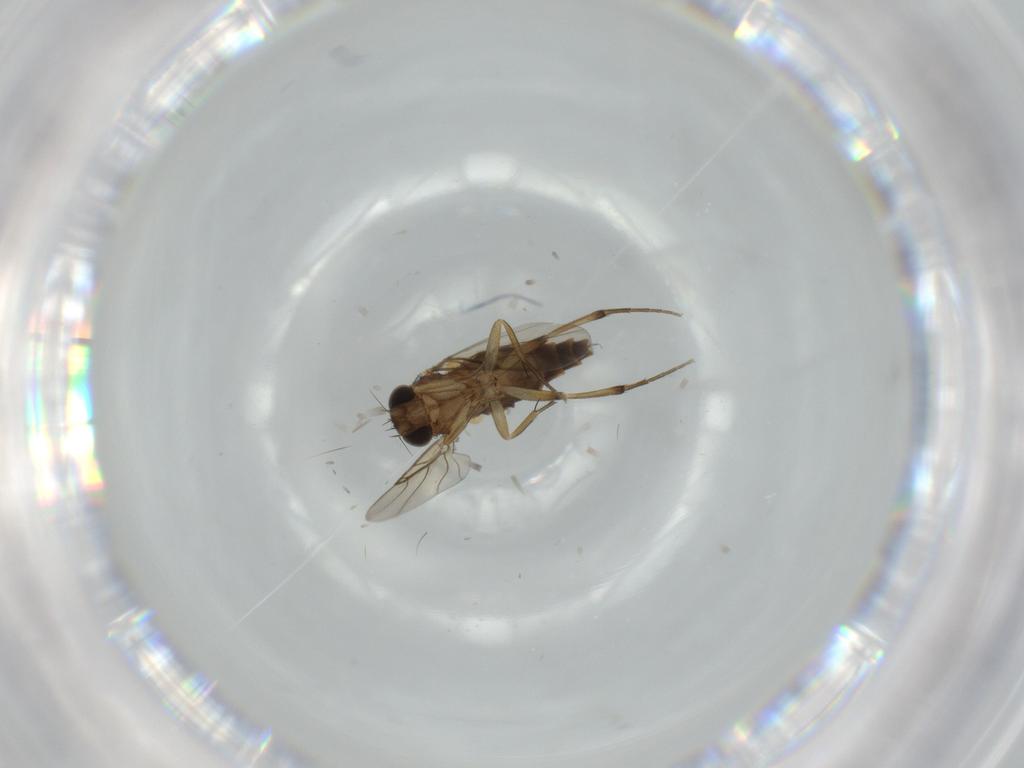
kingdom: Animalia
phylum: Arthropoda
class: Insecta
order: Diptera
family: Phoridae
